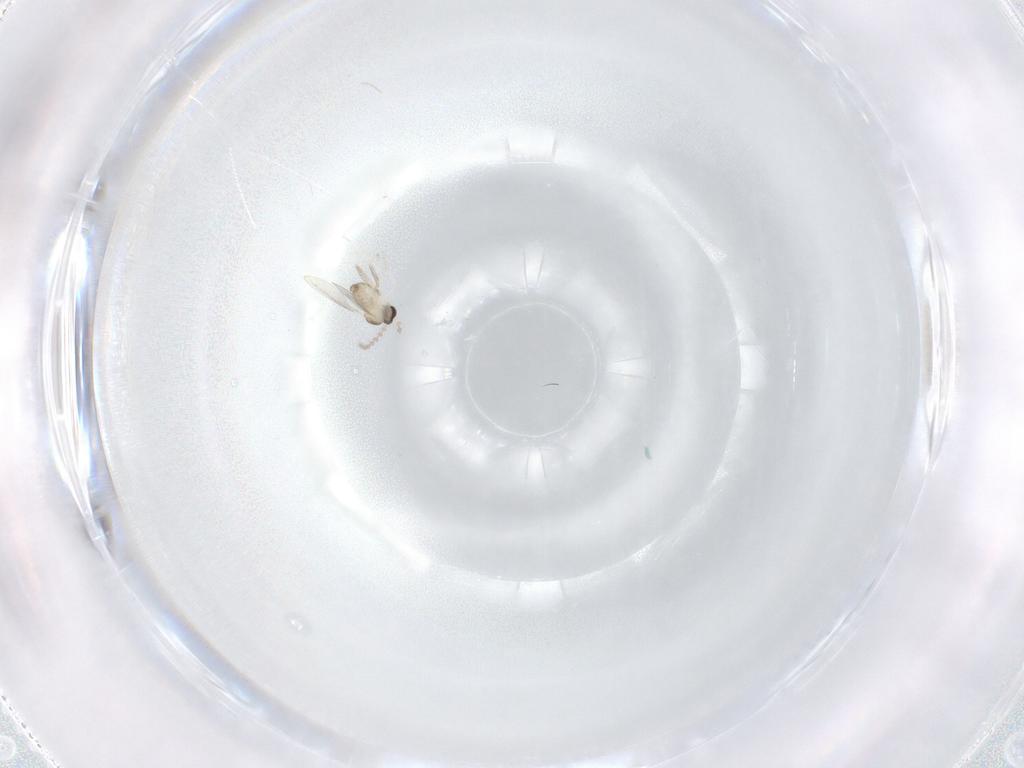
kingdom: Animalia
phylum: Arthropoda
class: Insecta
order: Diptera
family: Cecidomyiidae
